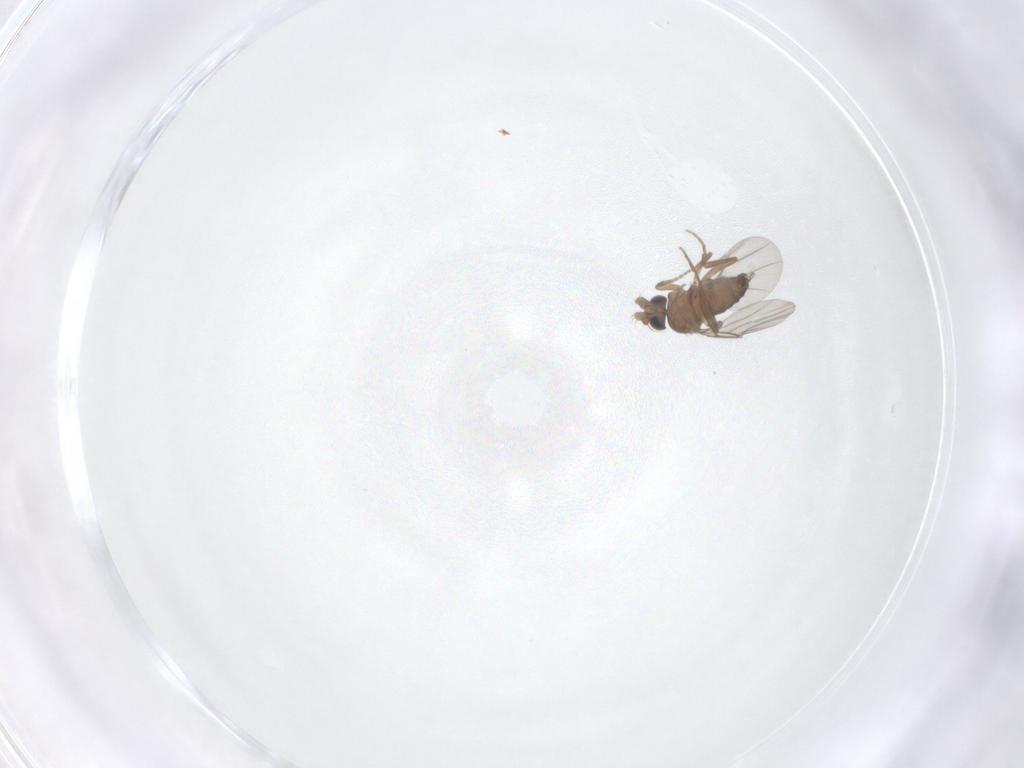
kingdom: Animalia
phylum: Arthropoda
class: Insecta
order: Diptera
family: Phoridae
